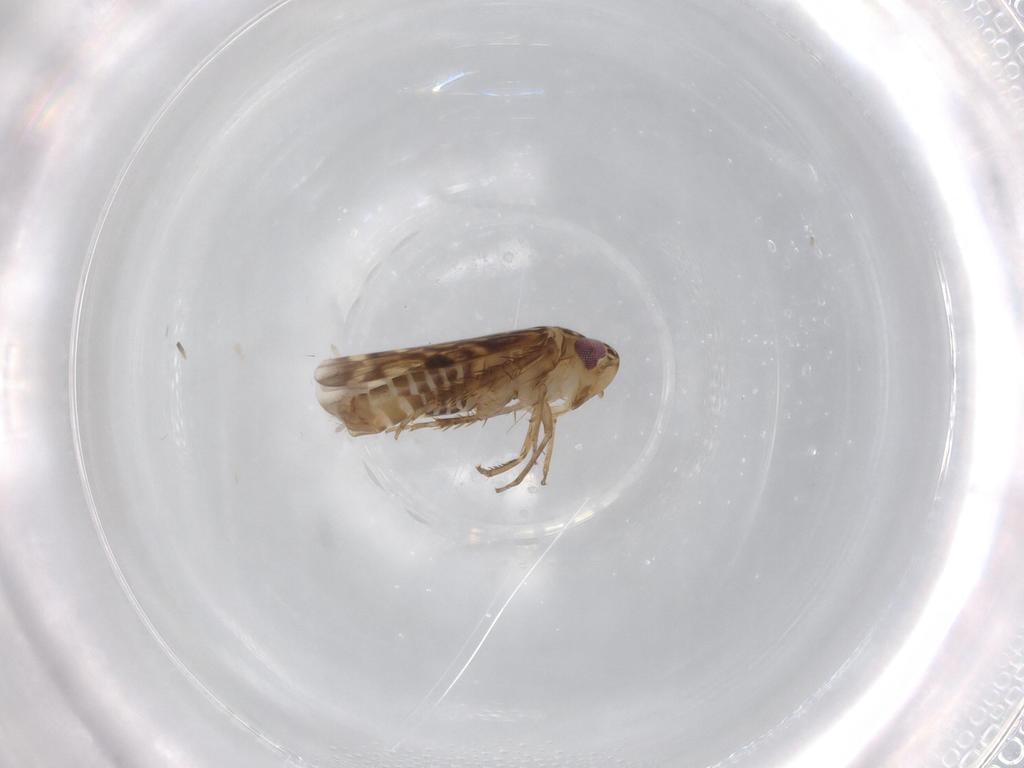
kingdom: Animalia
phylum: Arthropoda
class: Insecta
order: Hemiptera
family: Cicadellidae
